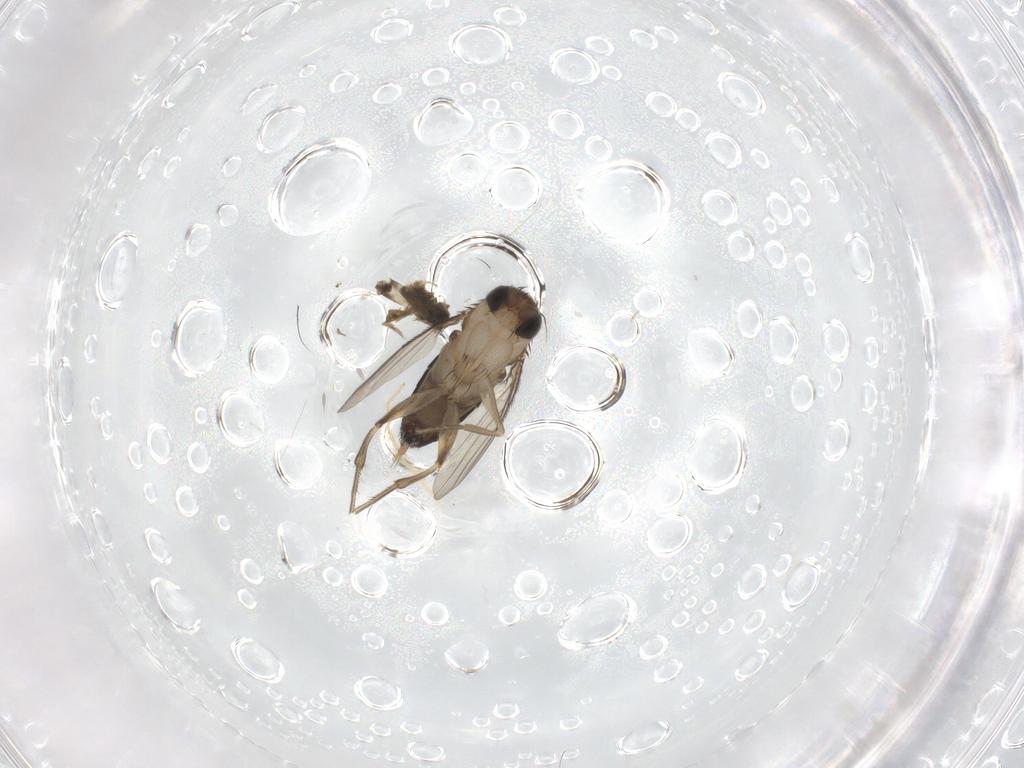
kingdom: Animalia
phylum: Arthropoda
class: Insecta
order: Diptera
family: Phoridae
